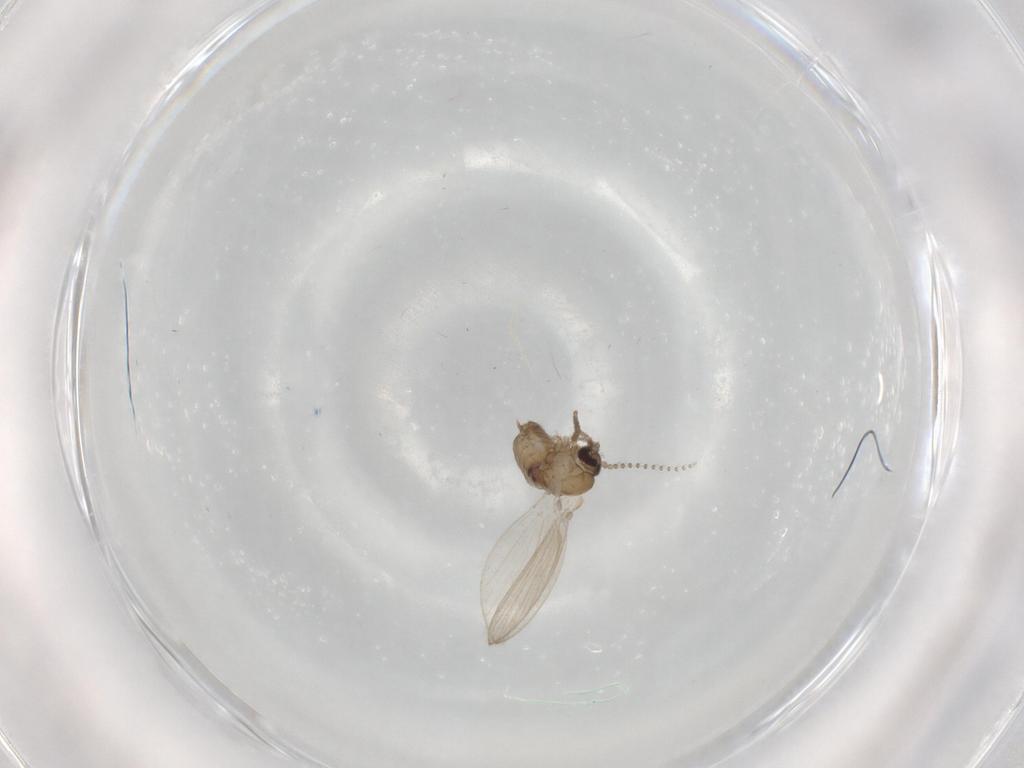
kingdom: Animalia
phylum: Arthropoda
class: Insecta
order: Diptera
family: Psychodidae
